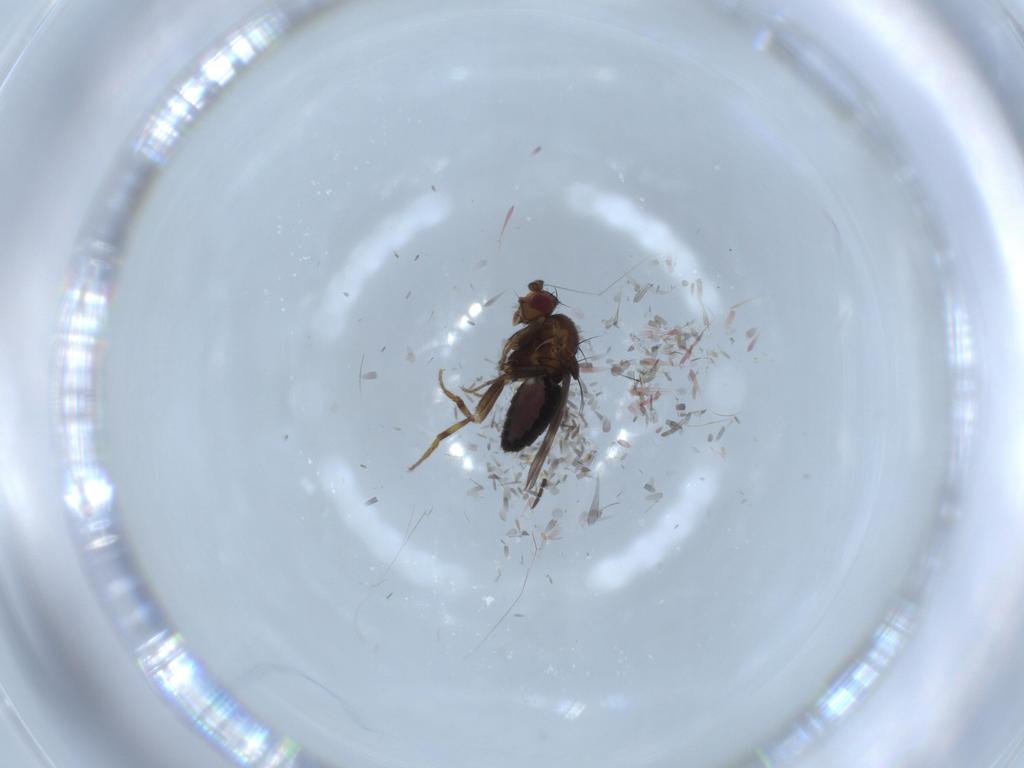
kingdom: Animalia
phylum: Arthropoda
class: Insecta
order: Diptera
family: Sphaeroceridae
